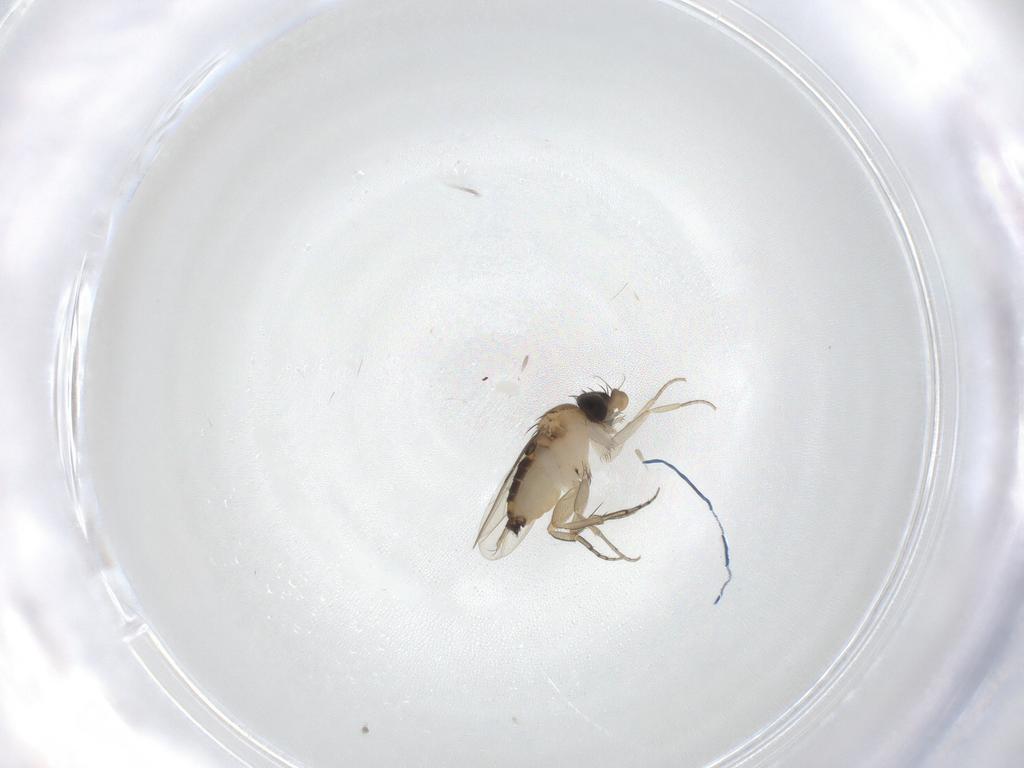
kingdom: Animalia
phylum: Arthropoda
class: Insecta
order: Diptera
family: Phoridae
